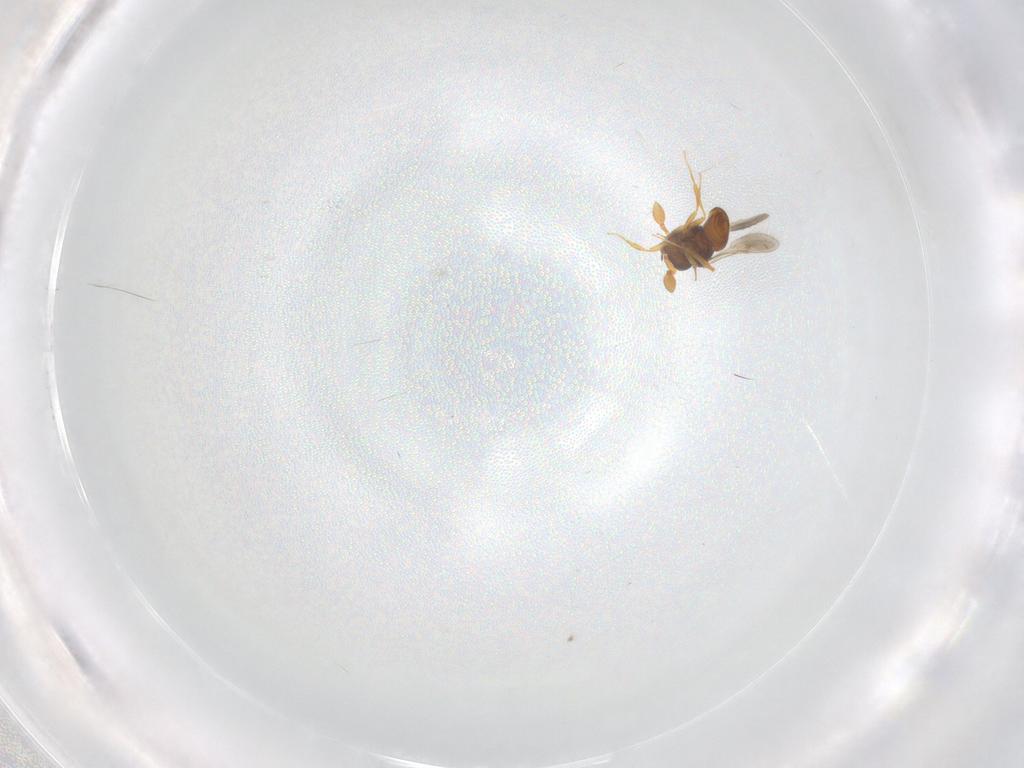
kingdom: Animalia
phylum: Arthropoda
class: Insecta
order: Hymenoptera
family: Scelionidae
